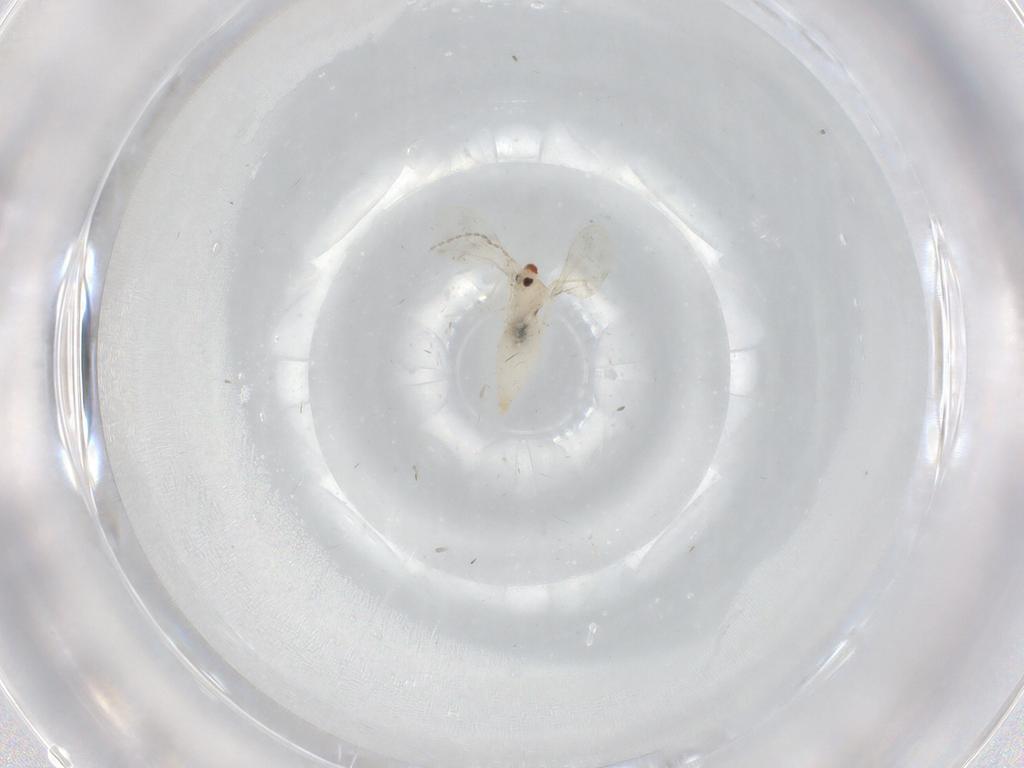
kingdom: Animalia
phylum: Arthropoda
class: Insecta
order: Diptera
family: Cecidomyiidae
